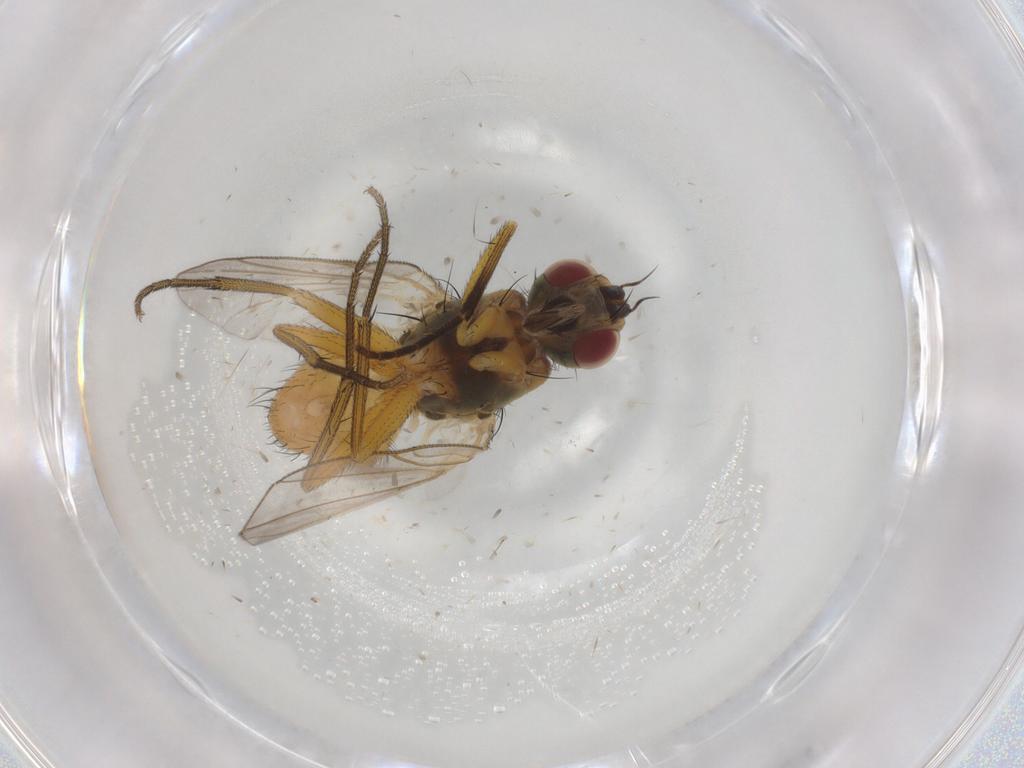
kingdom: Animalia
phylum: Arthropoda
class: Insecta
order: Diptera
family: Muscidae
